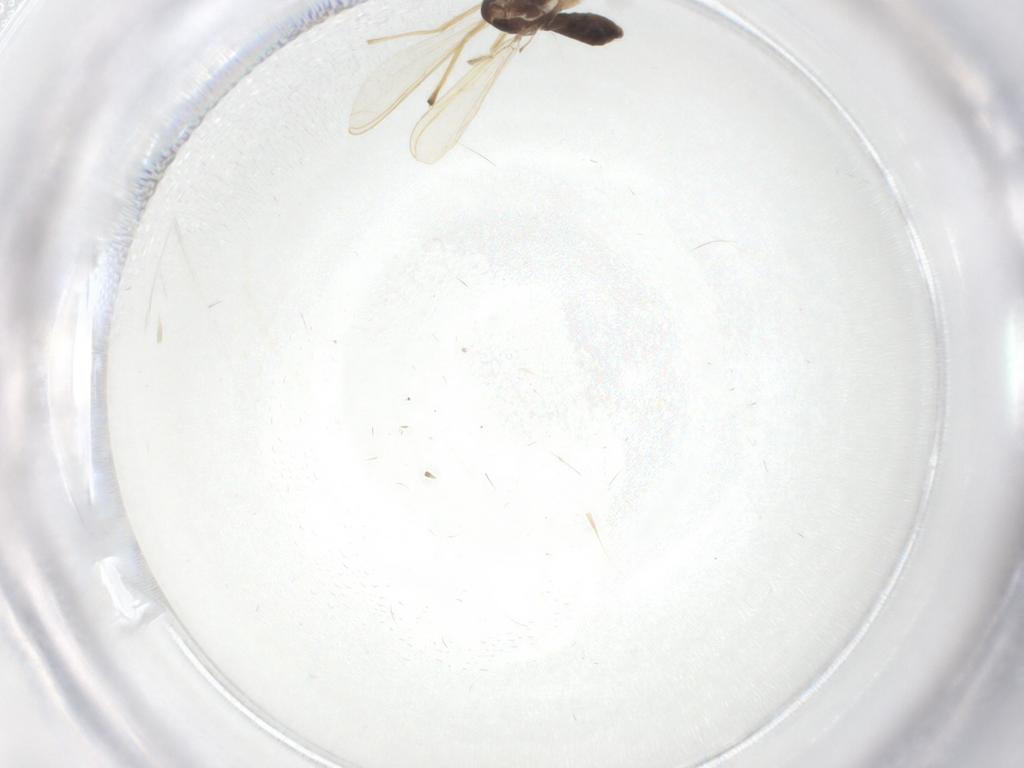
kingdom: Animalia
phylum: Arthropoda
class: Insecta
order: Diptera
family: Chironomidae
